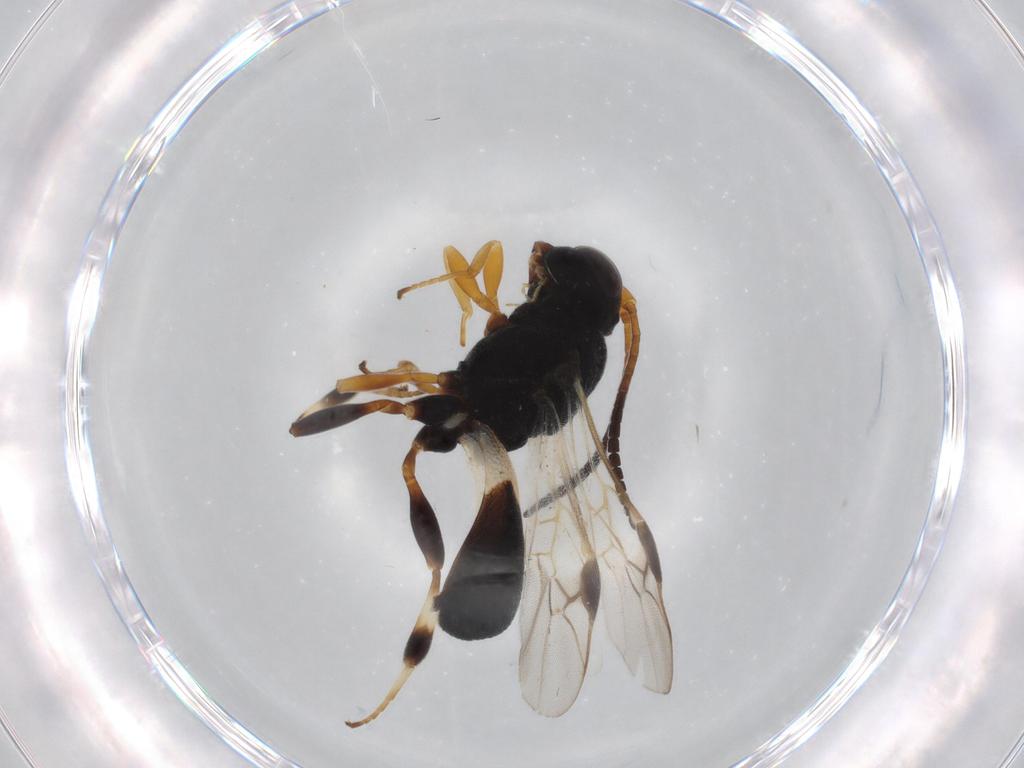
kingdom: Animalia
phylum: Arthropoda
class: Insecta
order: Hymenoptera
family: Braconidae
